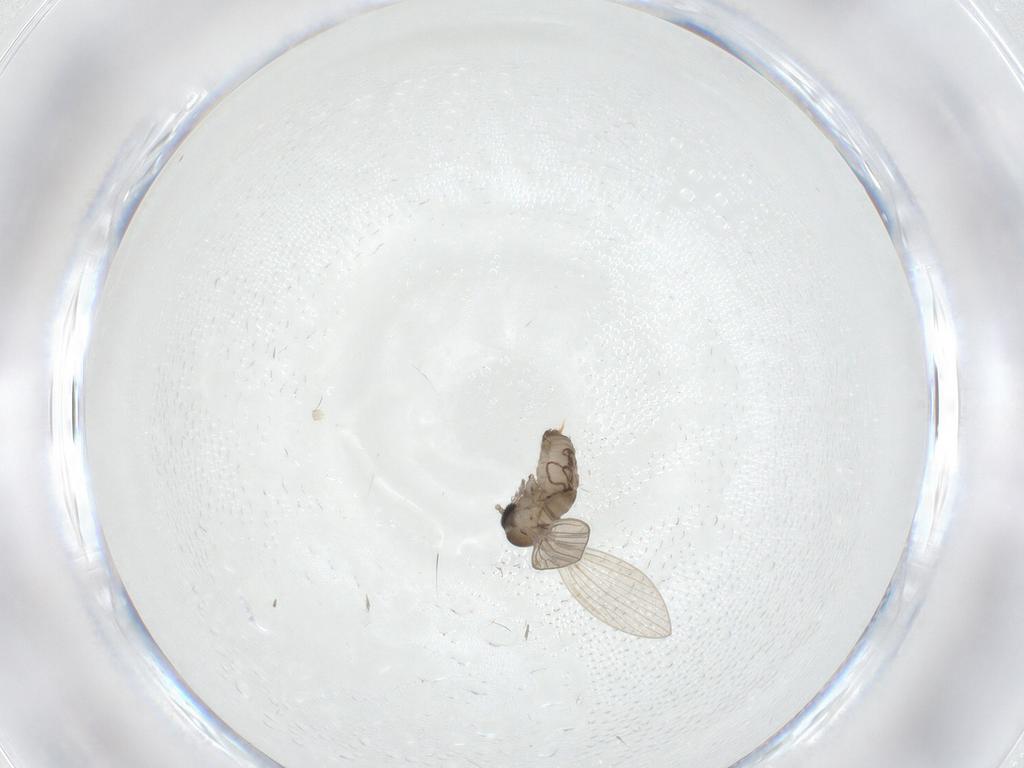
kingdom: Animalia
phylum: Arthropoda
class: Insecta
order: Diptera
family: Psychodidae
